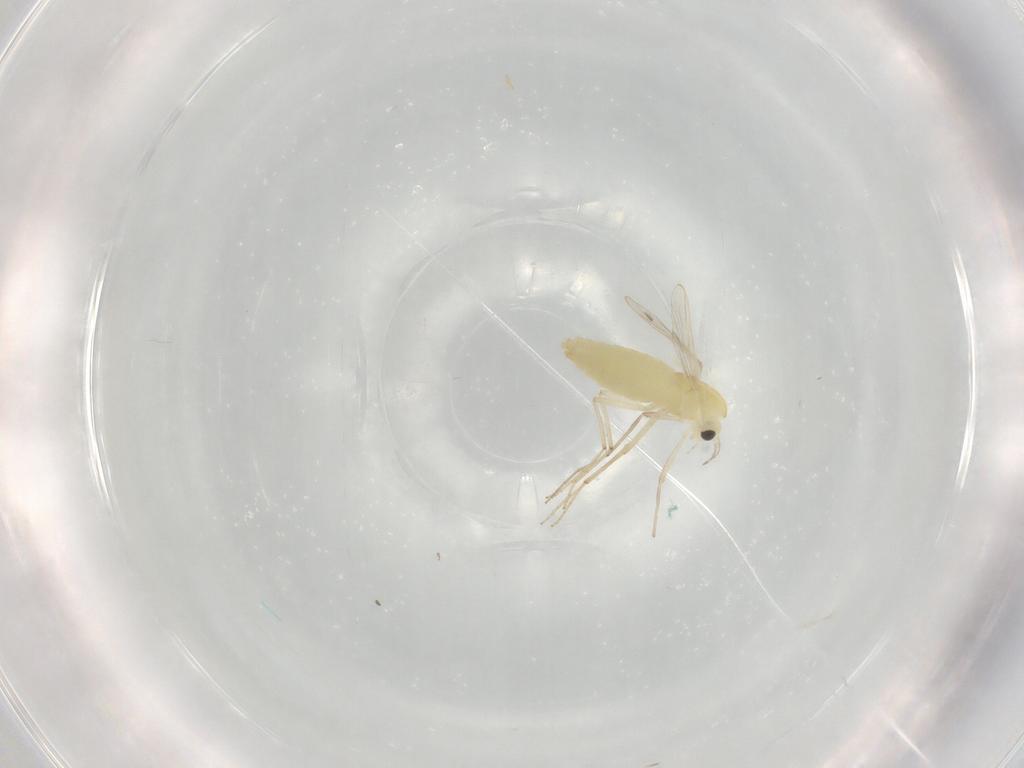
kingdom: Animalia
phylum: Arthropoda
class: Insecta
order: Diptera
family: Chironomidae
